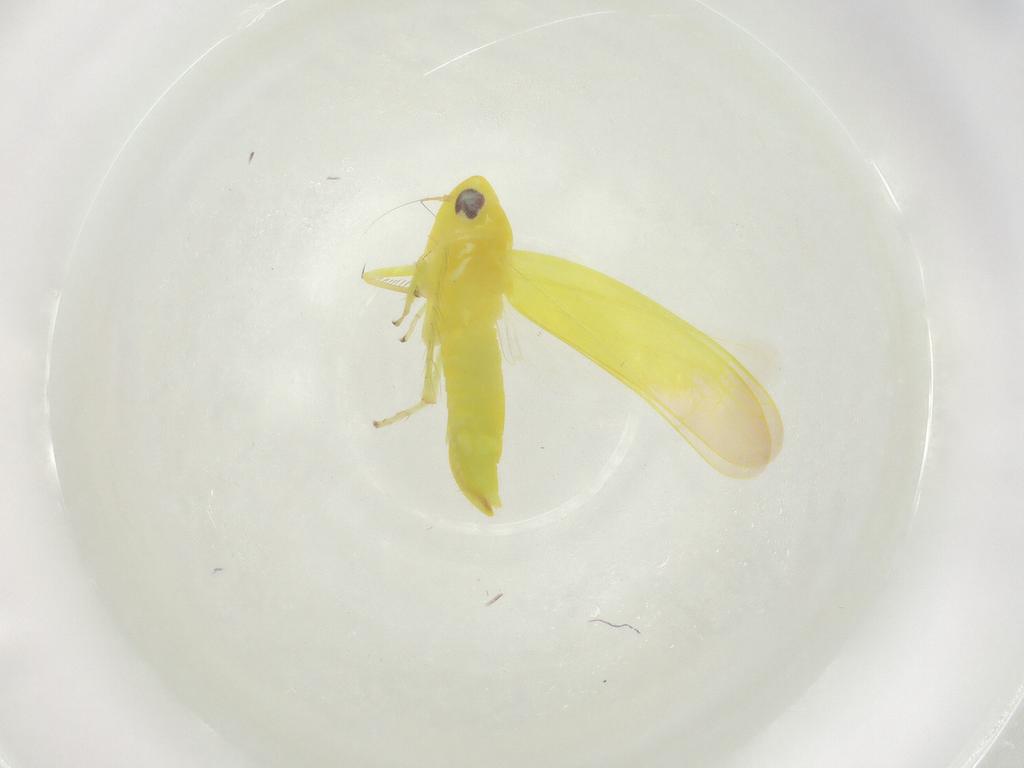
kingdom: Animalia
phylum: Arthropoda
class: Insecta
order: Hemiptera
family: Cicadellidae
